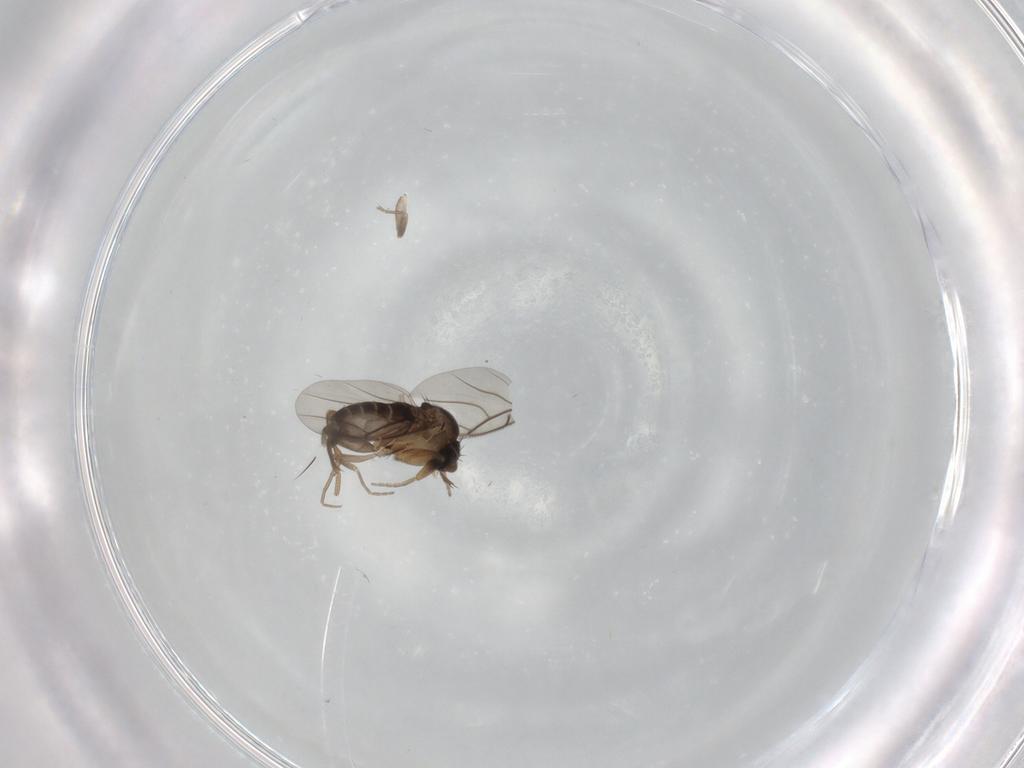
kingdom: Animalia
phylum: Arthropoda
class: Insecta
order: Diptera
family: Phoridae
